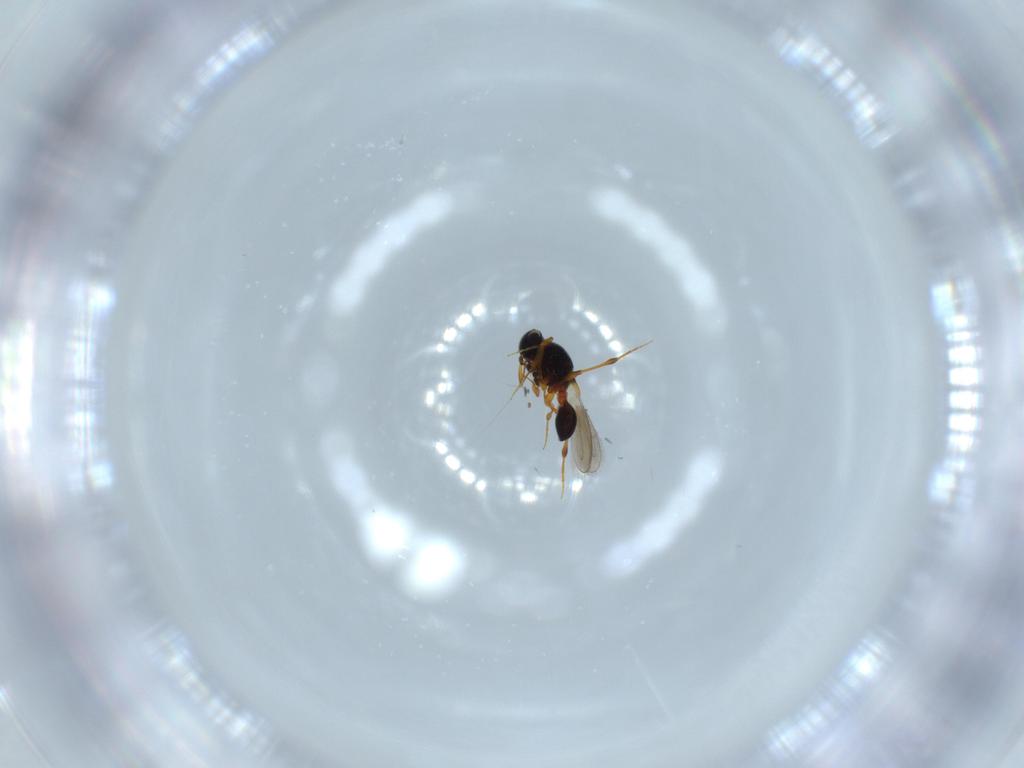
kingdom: Animalia
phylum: Arthropoda
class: Insecta
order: Hymenoptera
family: Platygastridae
